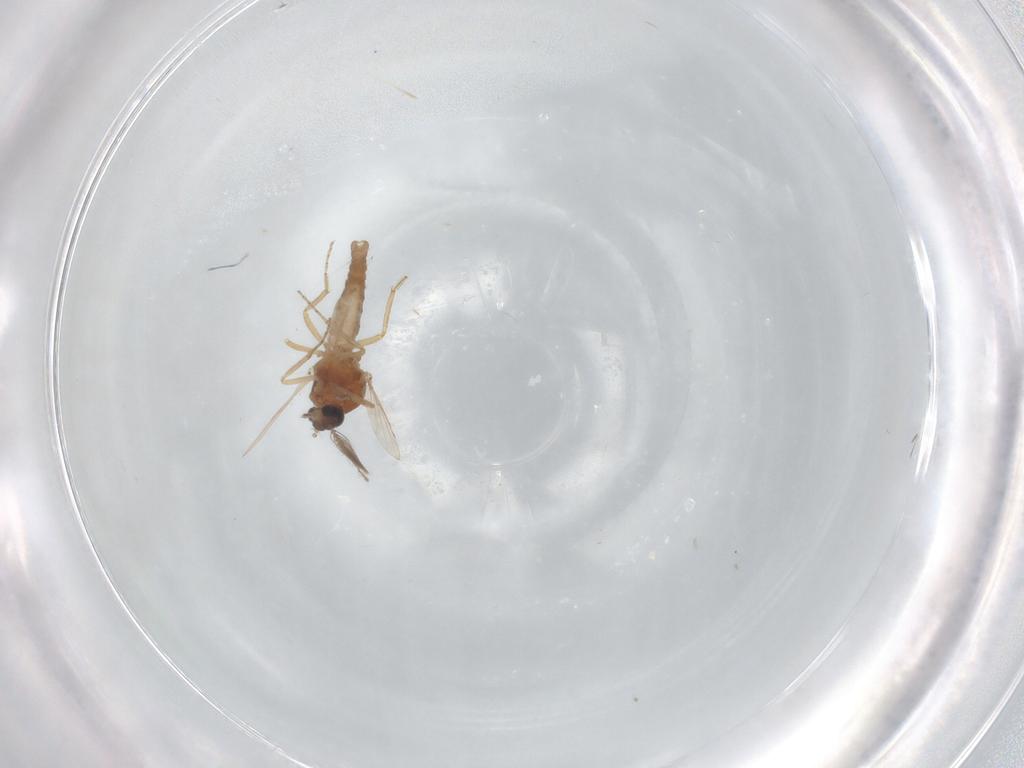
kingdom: Animalia
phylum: Arthropoda
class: Insecta
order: Diptera
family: Ceratopogonidae
